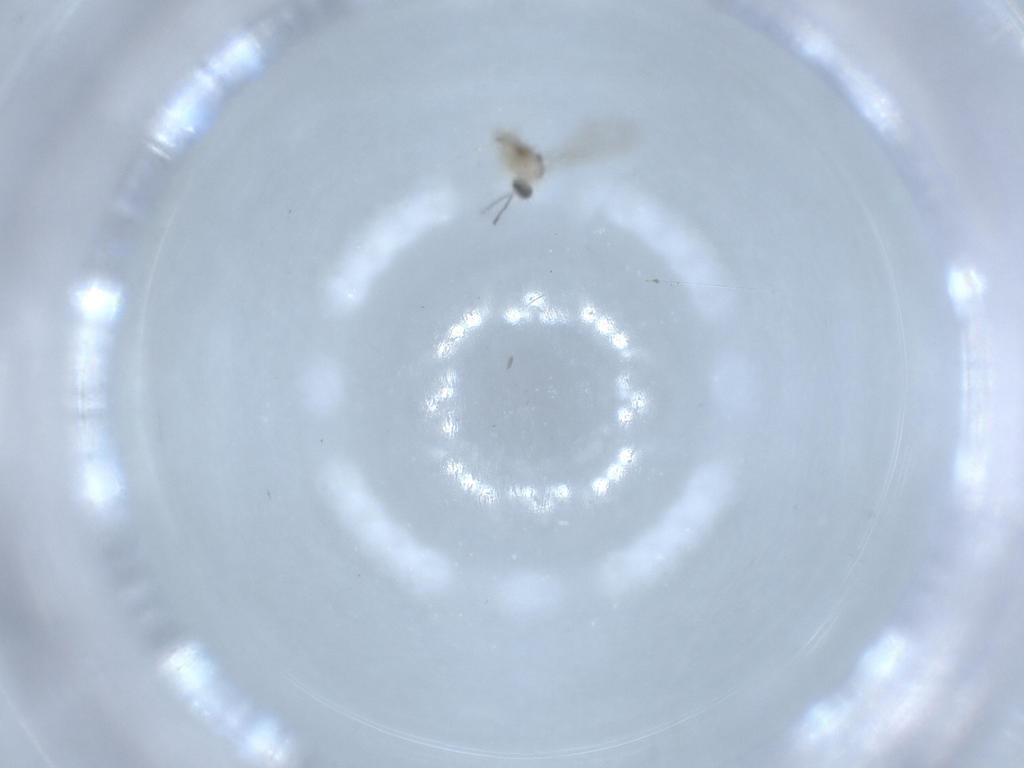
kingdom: Animalia
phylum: Arthropoda
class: Insecta
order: Diptera
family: Cecidomyiidae
